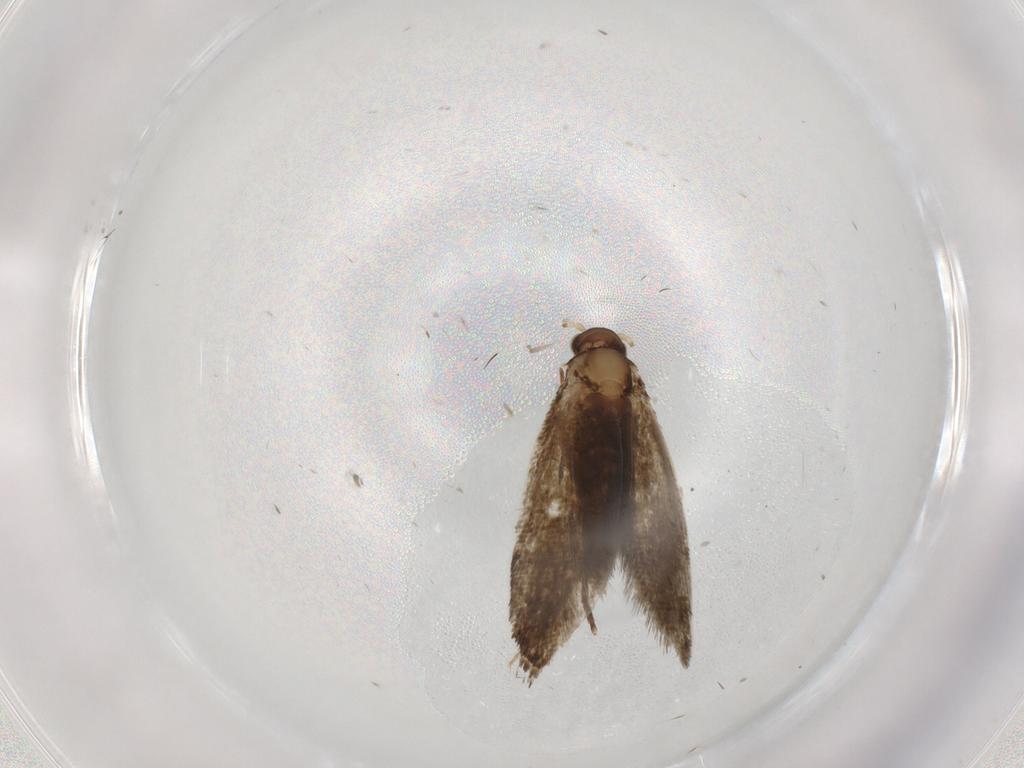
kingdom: Animalia
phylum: Arthropoda
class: Insecta
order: Lepidoptera
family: Tineidae
